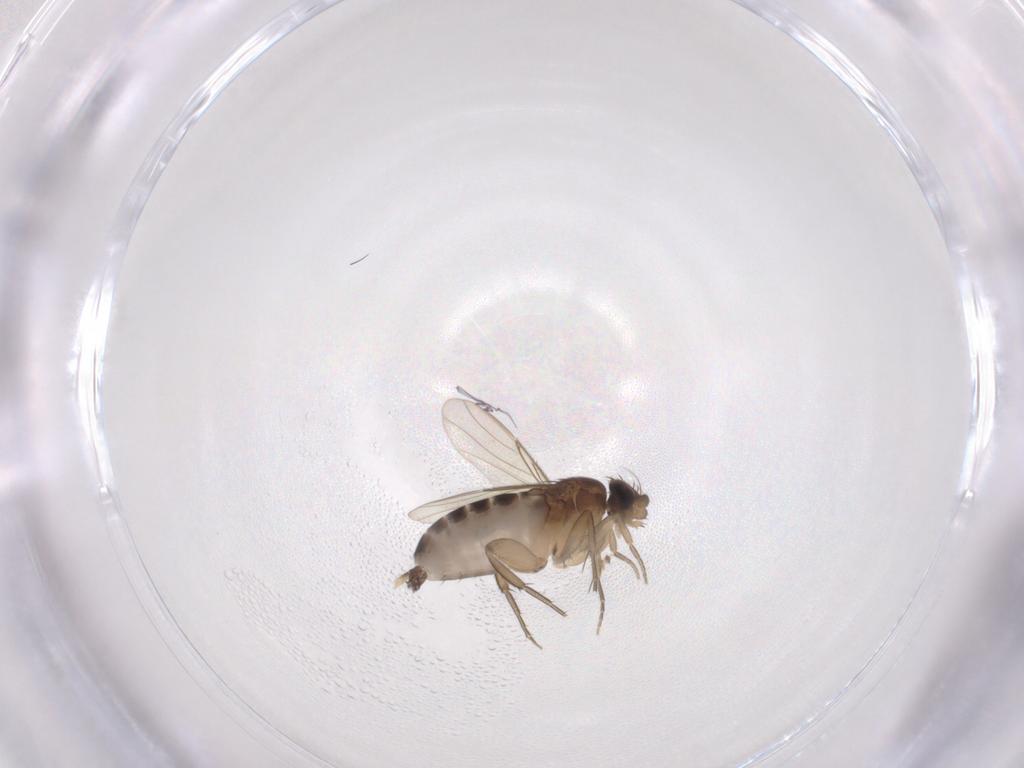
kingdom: Animalia
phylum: Arthropoda
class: Insecta
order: Diptera
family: Phoridae
